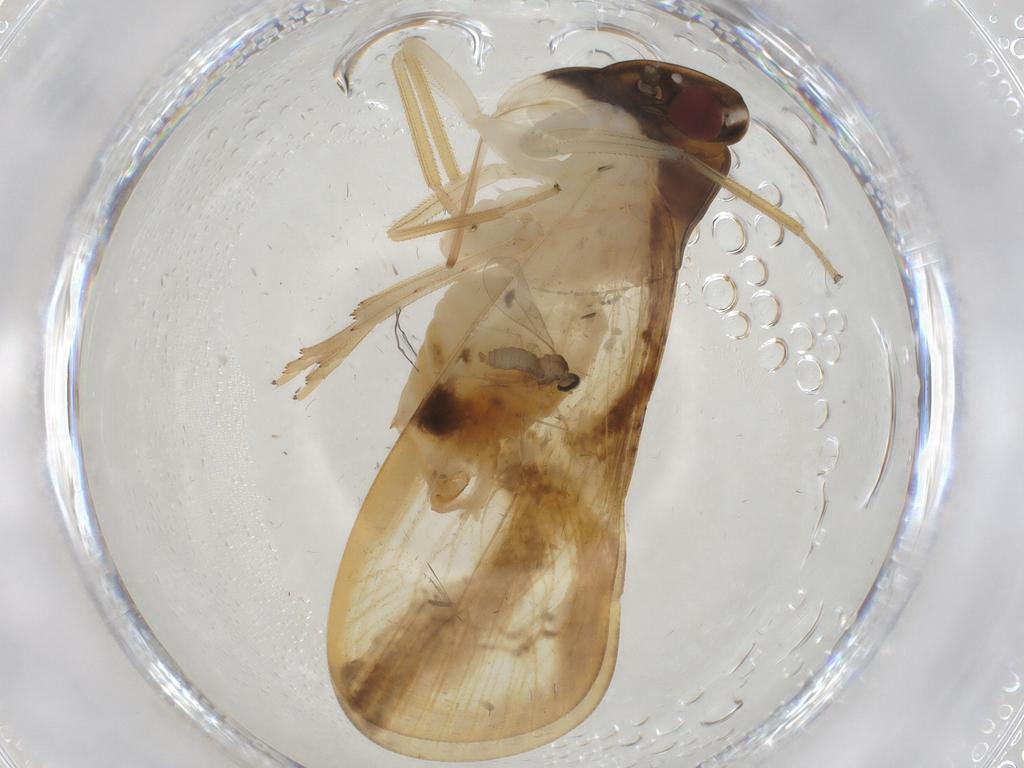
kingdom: Animalia
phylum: Arthropoda
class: Insecta
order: Hemiptera
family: Cixiidae
